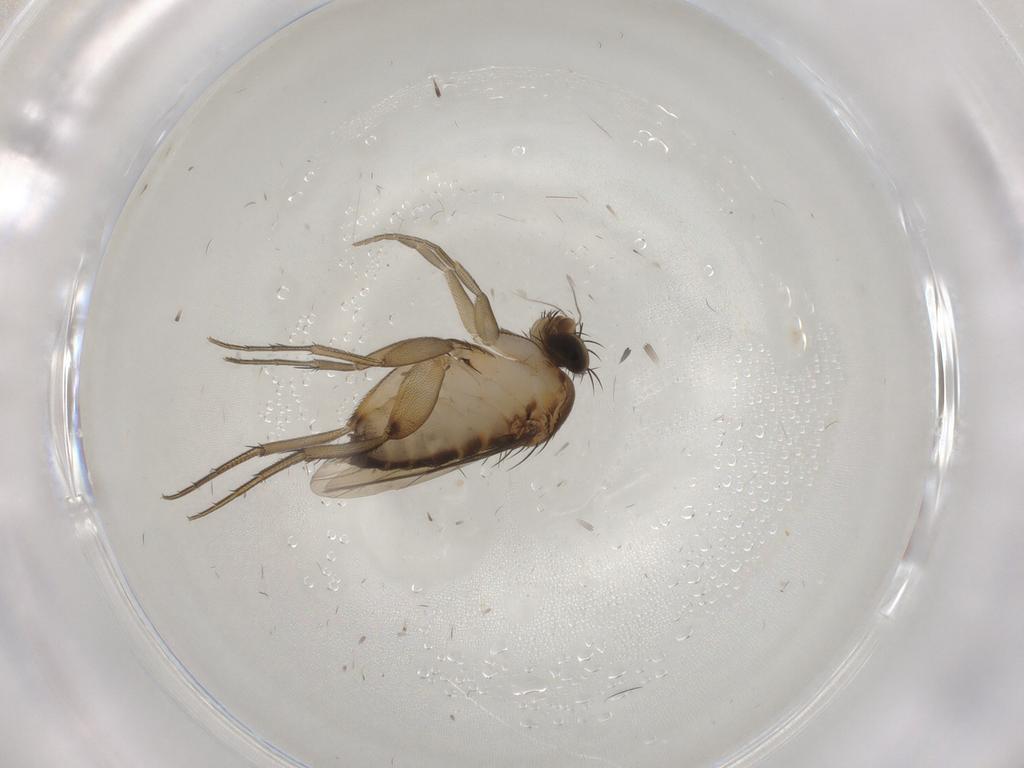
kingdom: Animalia
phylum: Arthropoda
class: Insecta
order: Diptera
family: Phoridae
